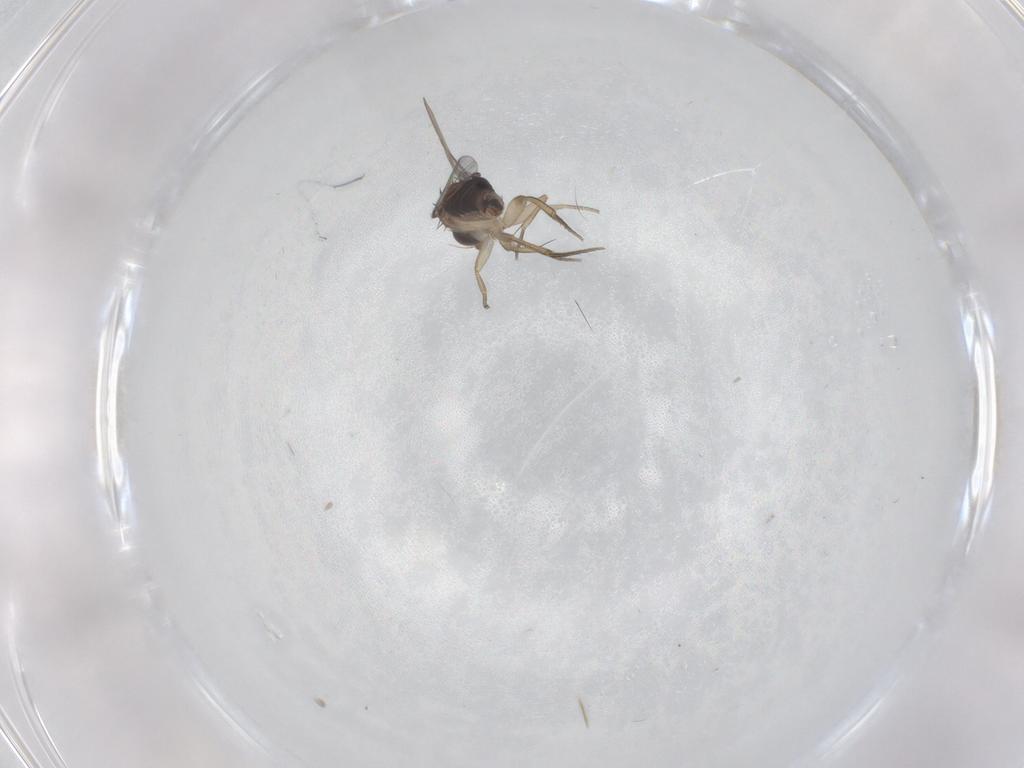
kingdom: Animalia
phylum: Arthropoda
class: Insecta
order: Diptera
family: Phoridae
